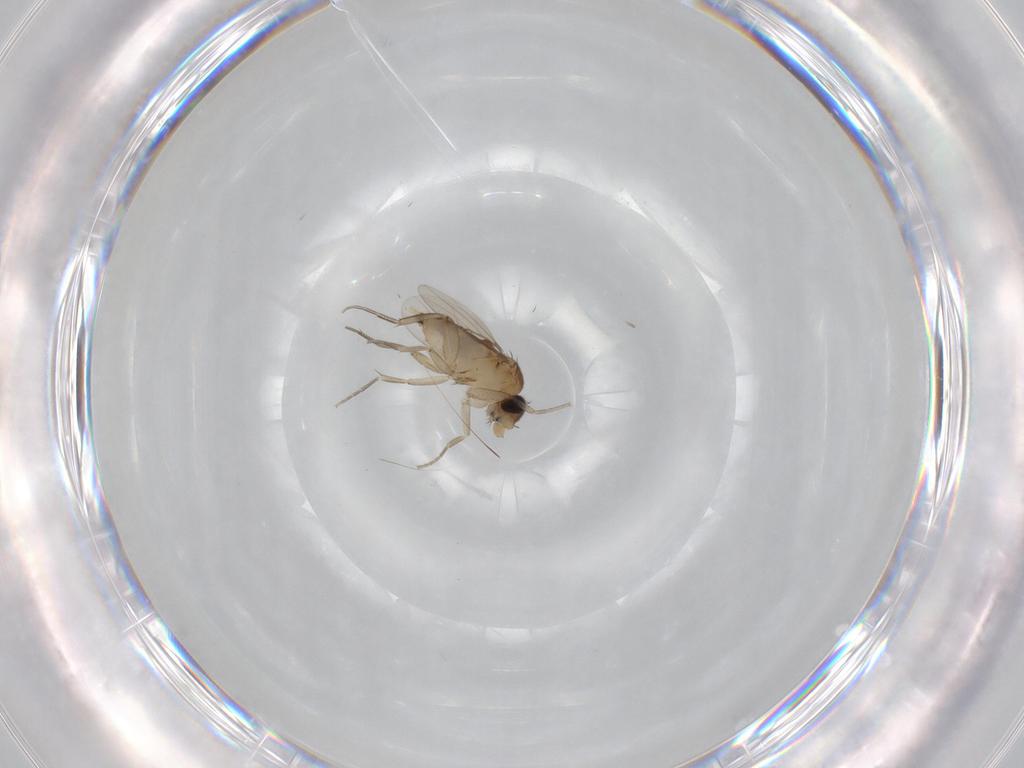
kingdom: Animalia
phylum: Arthropoda
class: Insecta
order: Diptera
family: Phoridae
